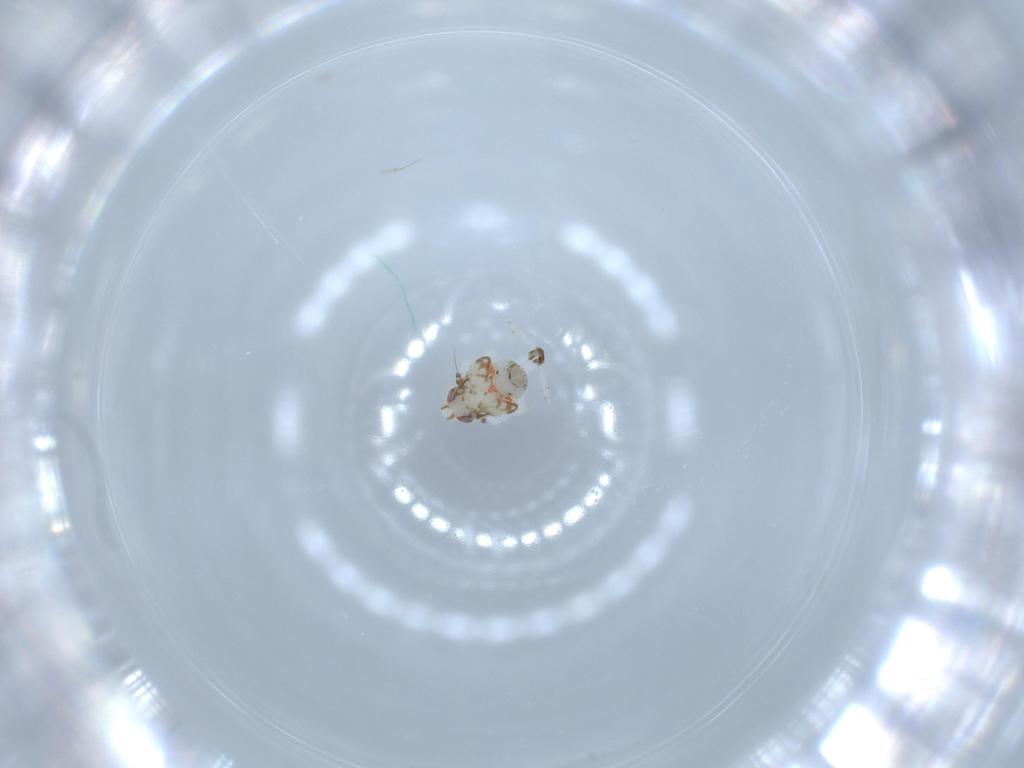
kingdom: Animalia
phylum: Arthropoda
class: Insecta
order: Hemiptera
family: Nogodinidae
